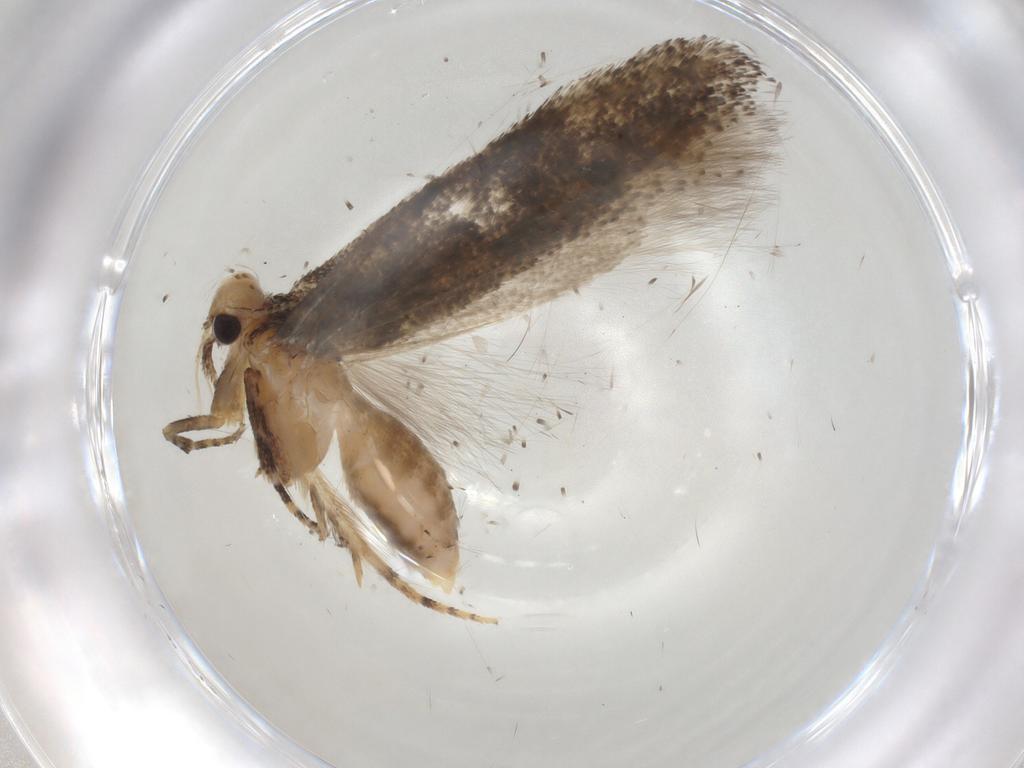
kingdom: Animalia
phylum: Arthropoda
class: Insecta
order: Lepidoptera
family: Gelechiidae
